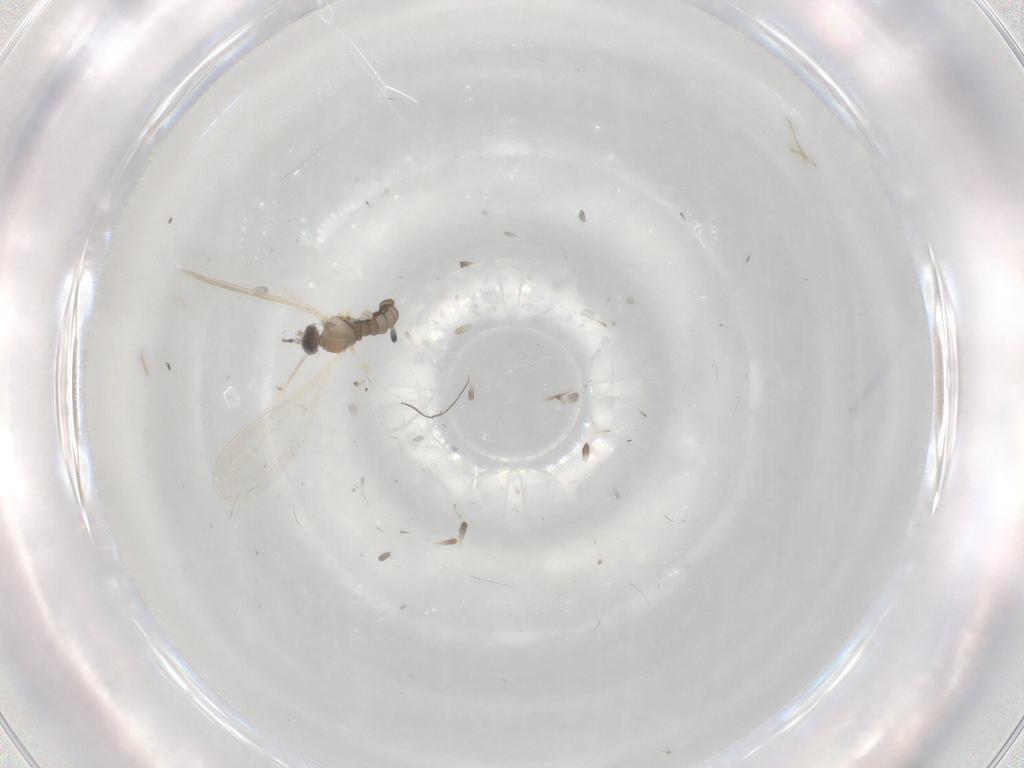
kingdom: Animalia
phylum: Arthropoda
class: Insecta
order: Diptera
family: Cecidomyiidae
